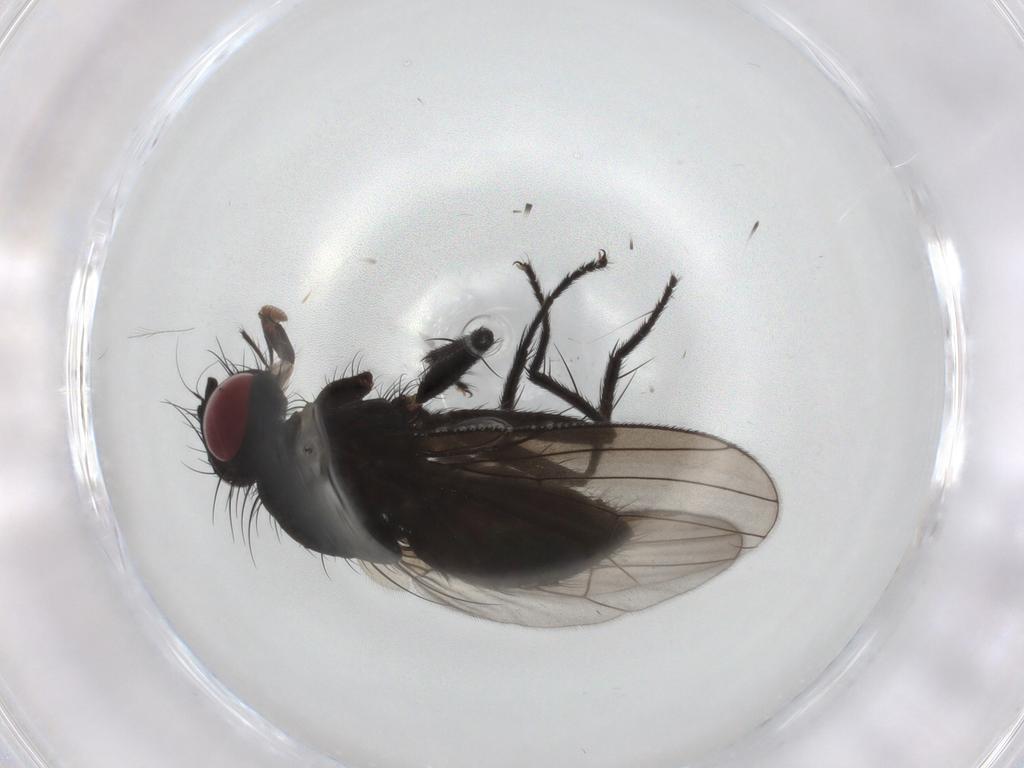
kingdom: Animalia
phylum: Arthropoda
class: Insecta
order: Diptera
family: Muscidae
